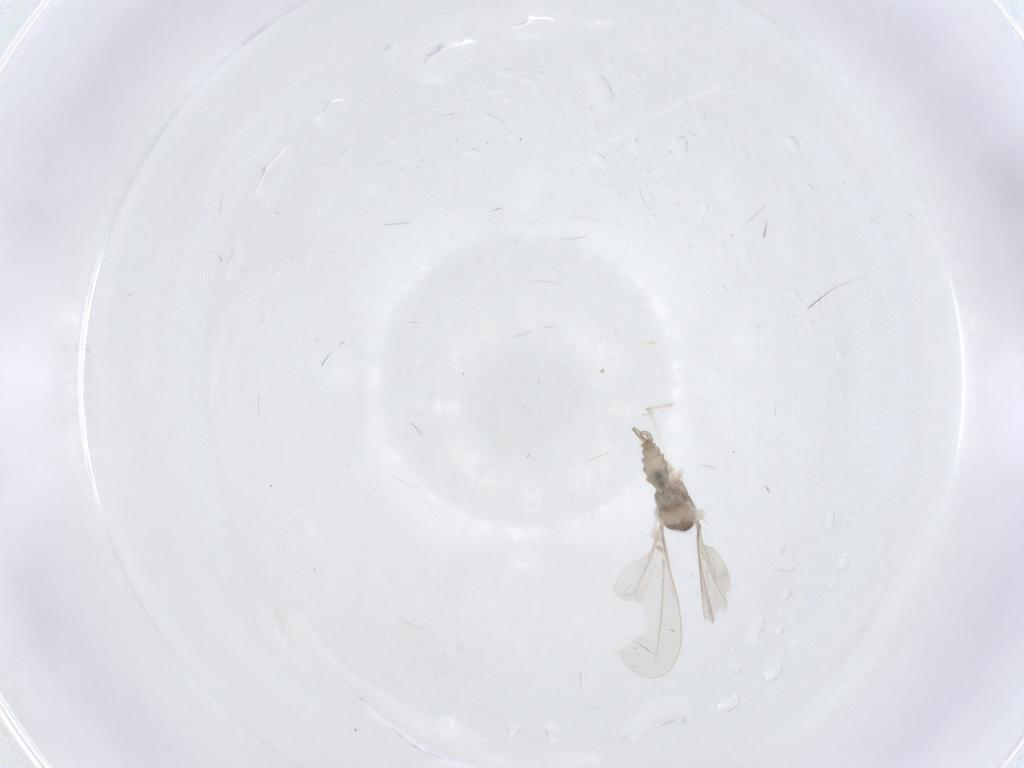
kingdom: Animalia
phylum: Arthropoda
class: Insecta
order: Diptera
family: Cecidomyiidae
